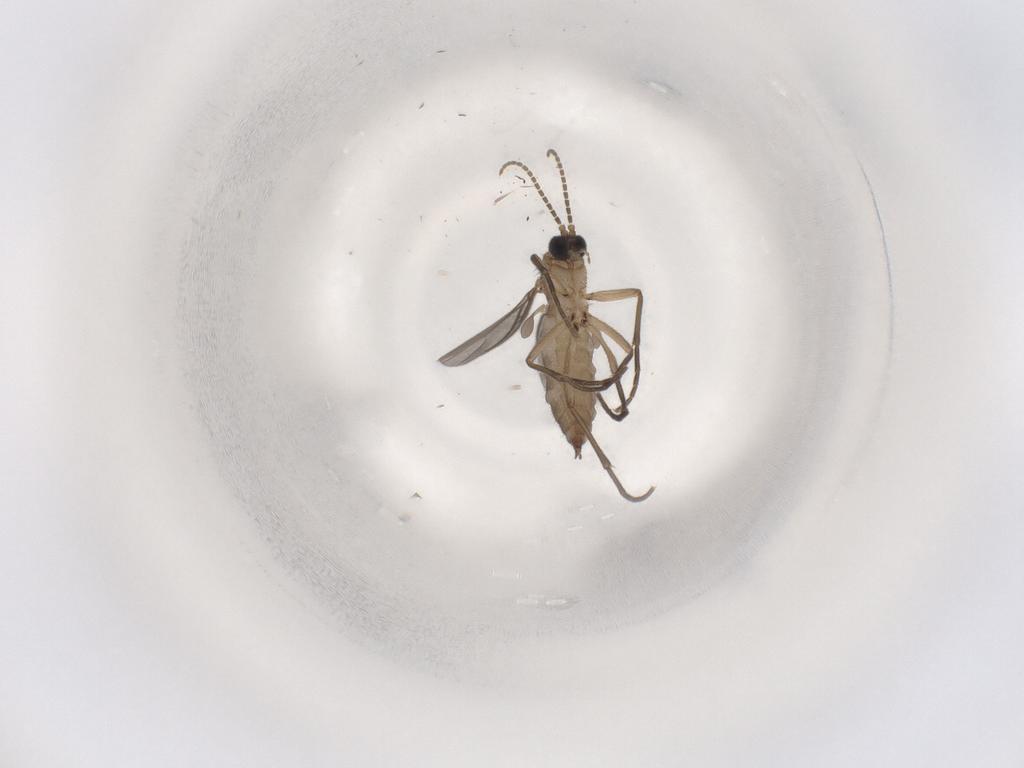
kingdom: Animalia
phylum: Arthropoda
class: Insecta
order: Diptera
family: Sciaridae
